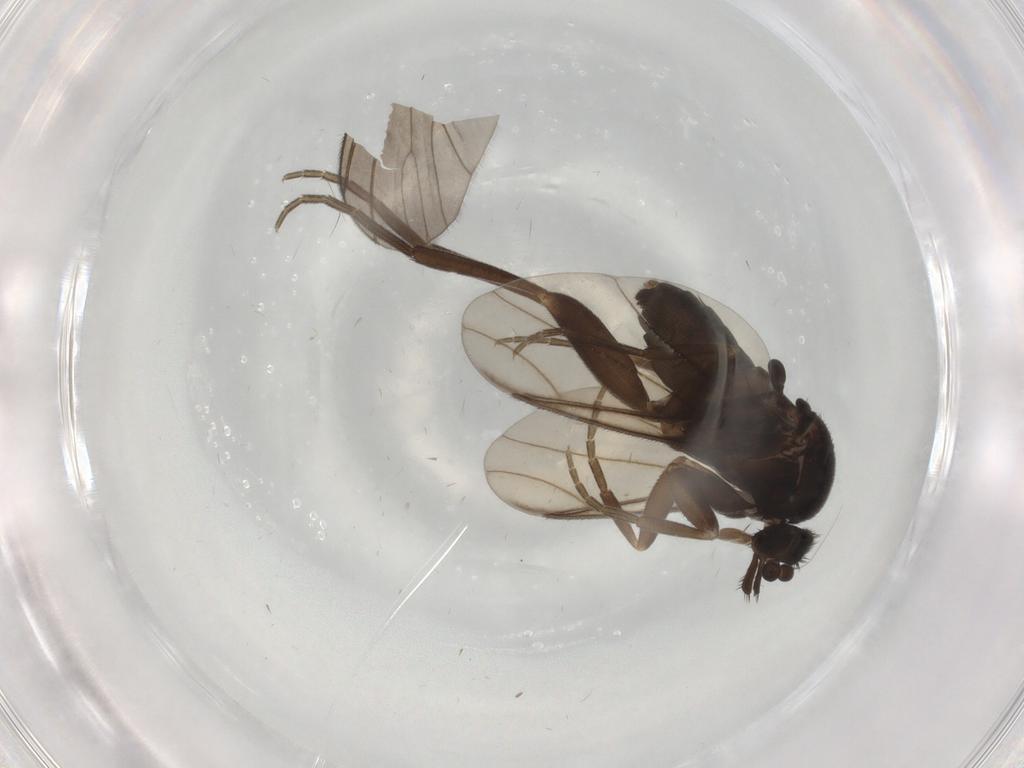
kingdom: Animalia
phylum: Arthropoda
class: Insecta
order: Diptera
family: Phoridae
